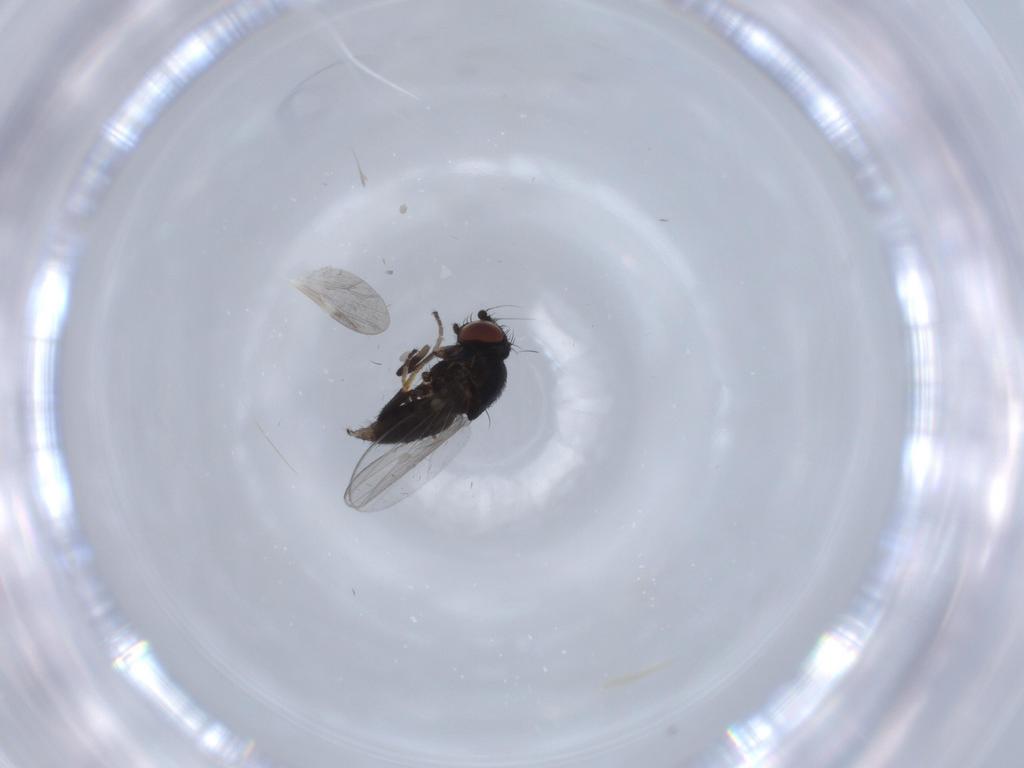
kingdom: Animalia
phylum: Arthropoda
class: Insecta
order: Diptera
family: Milichiidae
